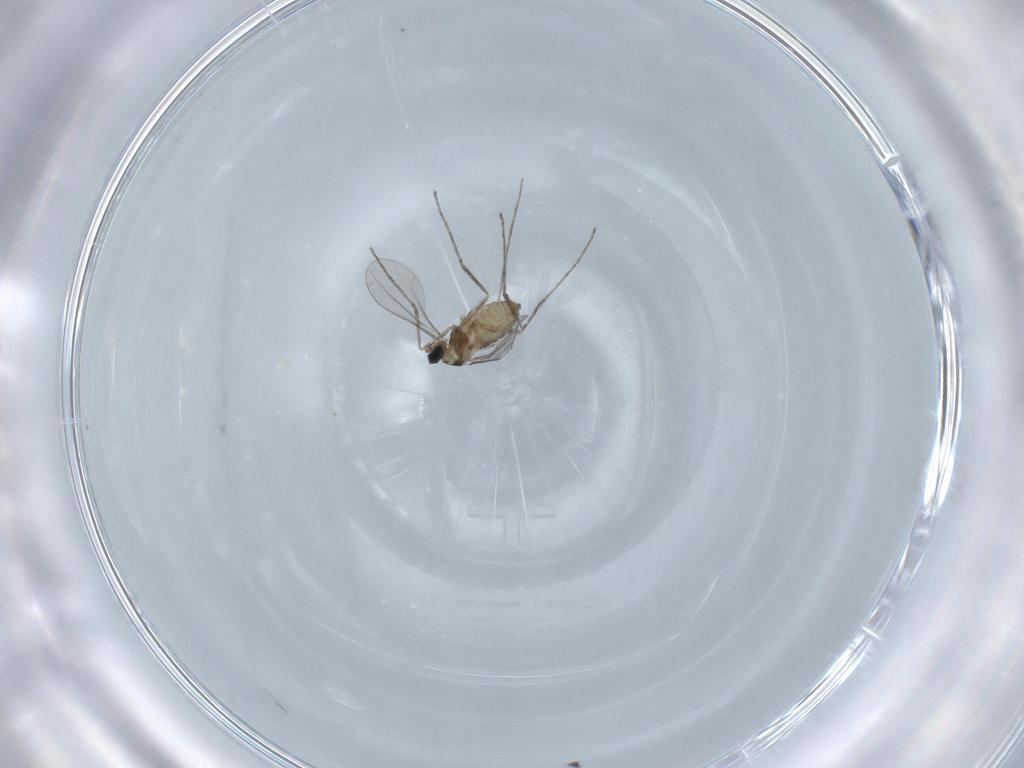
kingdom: Animalia
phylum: Arthropoda
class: Insecta
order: Diptera
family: Cecidomyiidae
